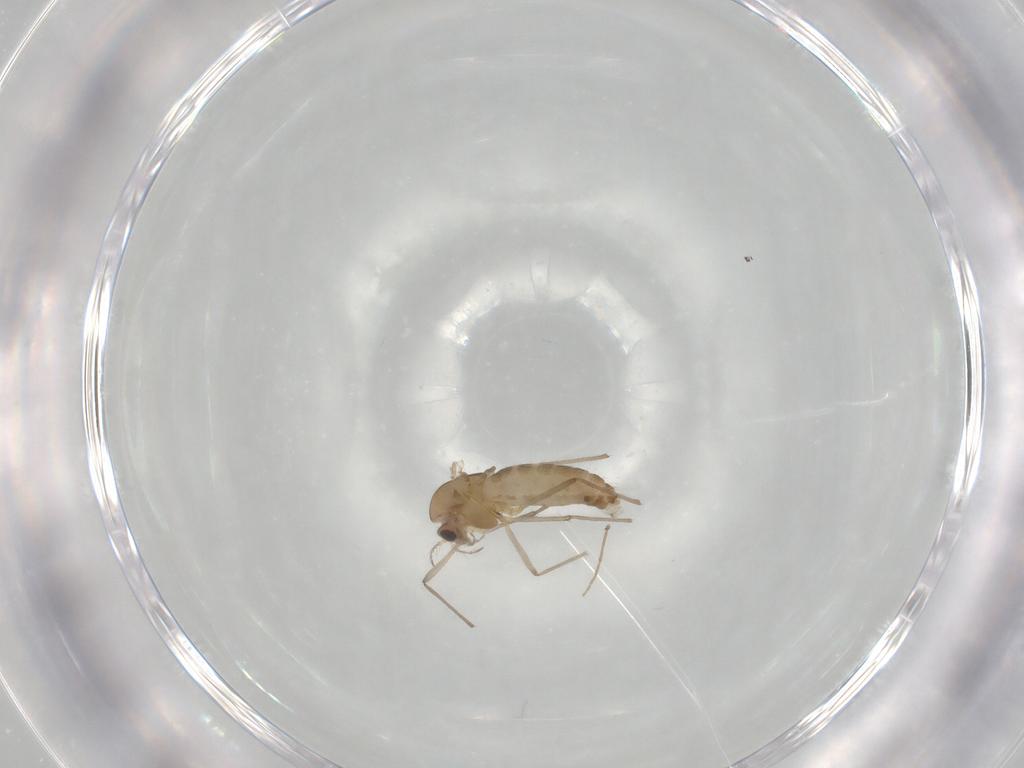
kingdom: Animalia
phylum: Arthropoda
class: Insecta
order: Diptera
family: Chironomidae
